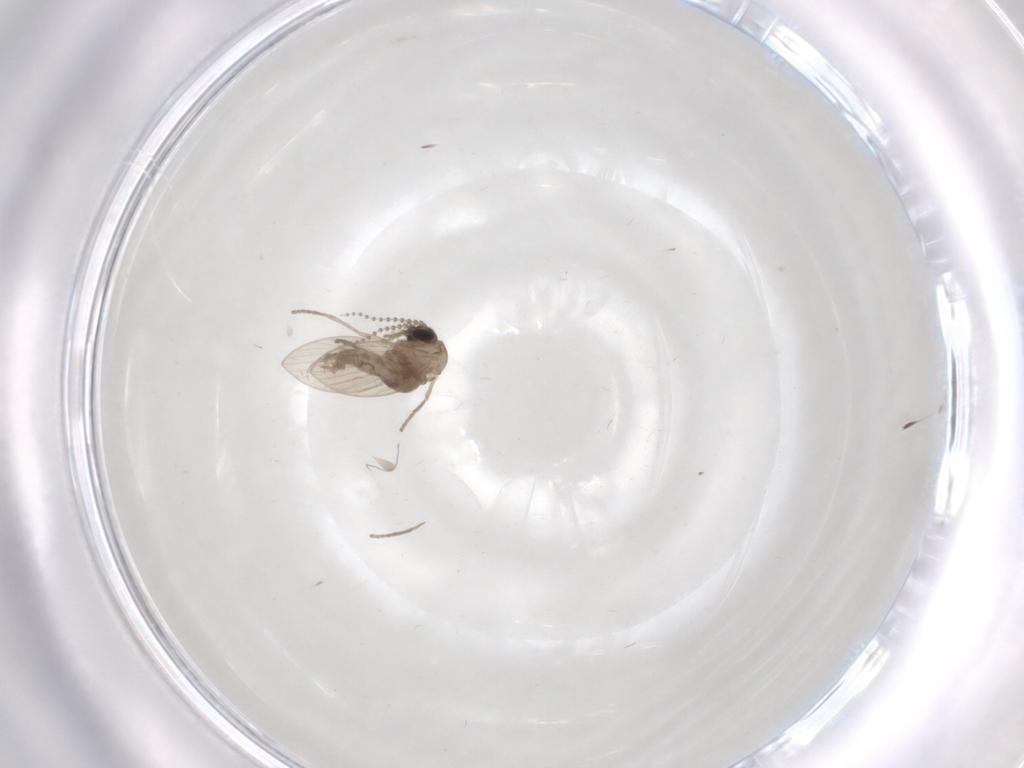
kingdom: Animalia
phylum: Arthropoda
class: Insecta
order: Diptera
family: Psychodidae
